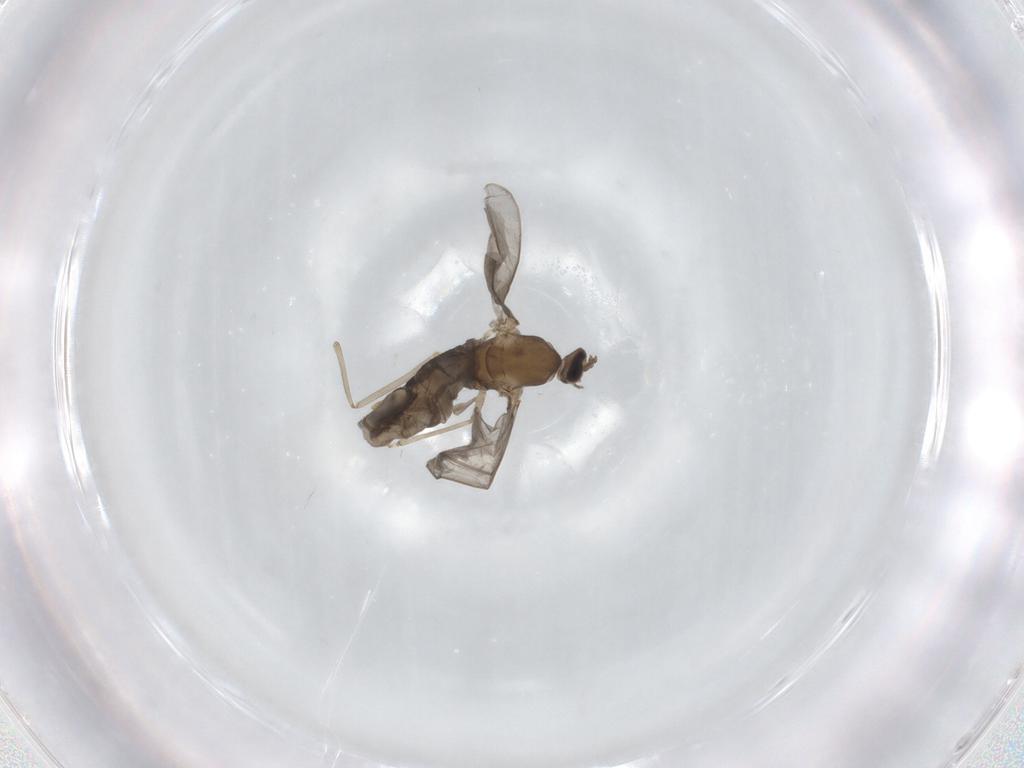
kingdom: Animalia
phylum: Arthropoda
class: Insecta
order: Diptera
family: Cecidomyiidae
